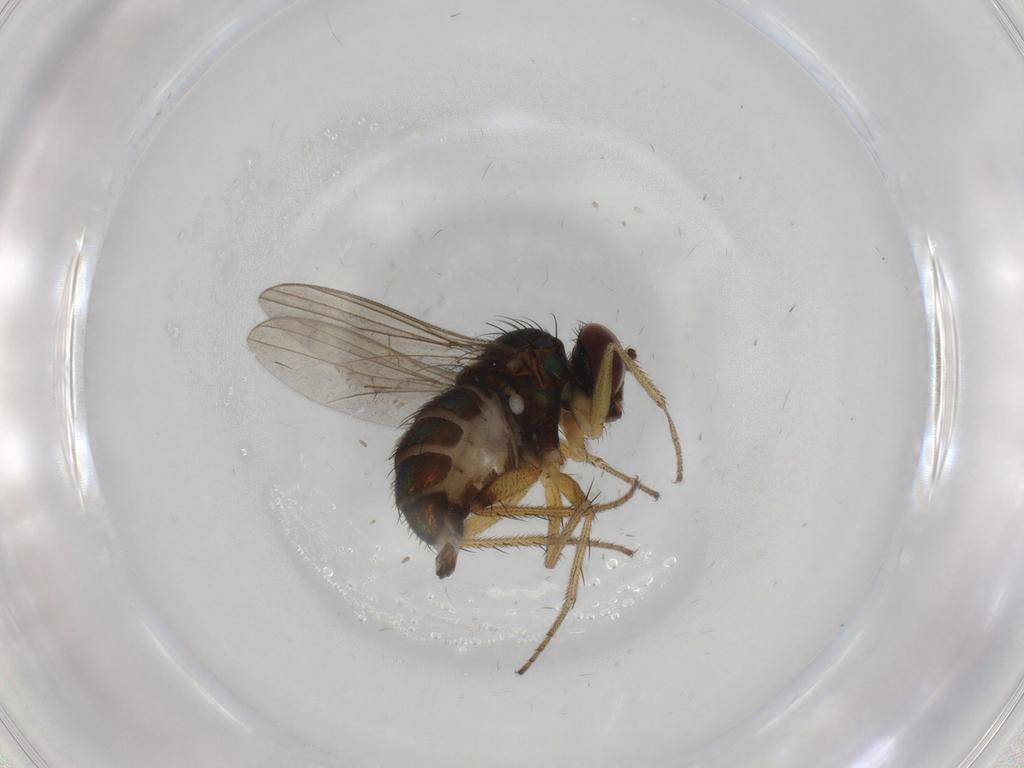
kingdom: Animalia
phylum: Arthropoda
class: Insecta
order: Diptera
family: Dolichopodidae
